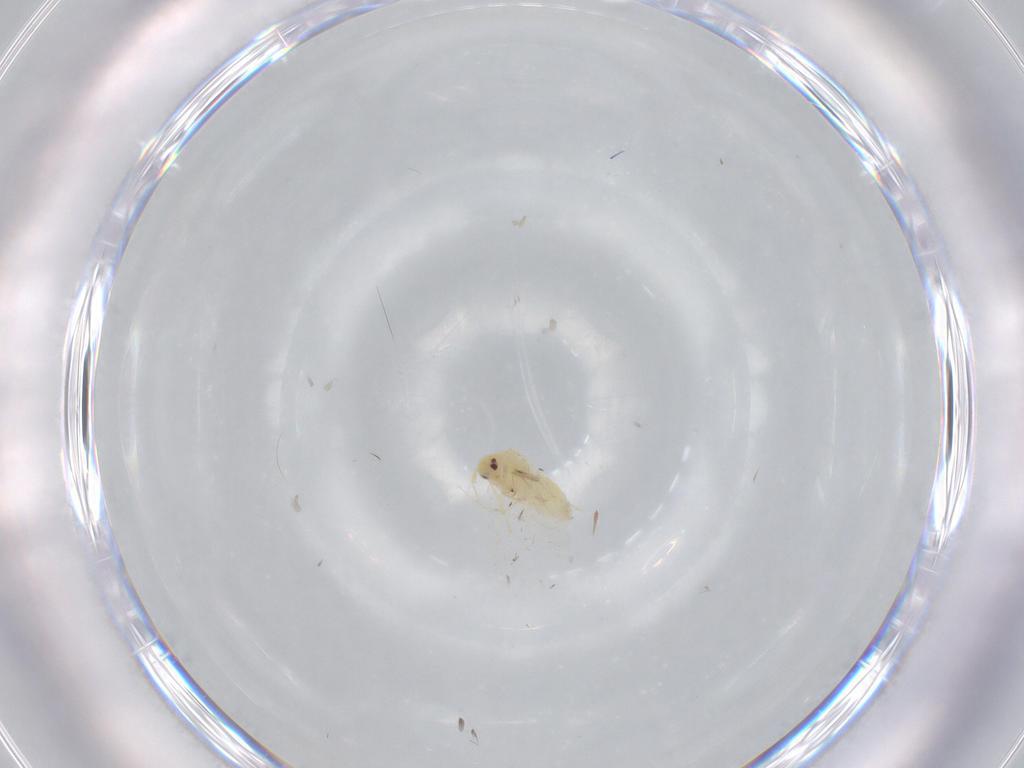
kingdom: Animalia
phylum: Arthropoda
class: Insecta
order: Hemiptera
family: Aleyrodidae
